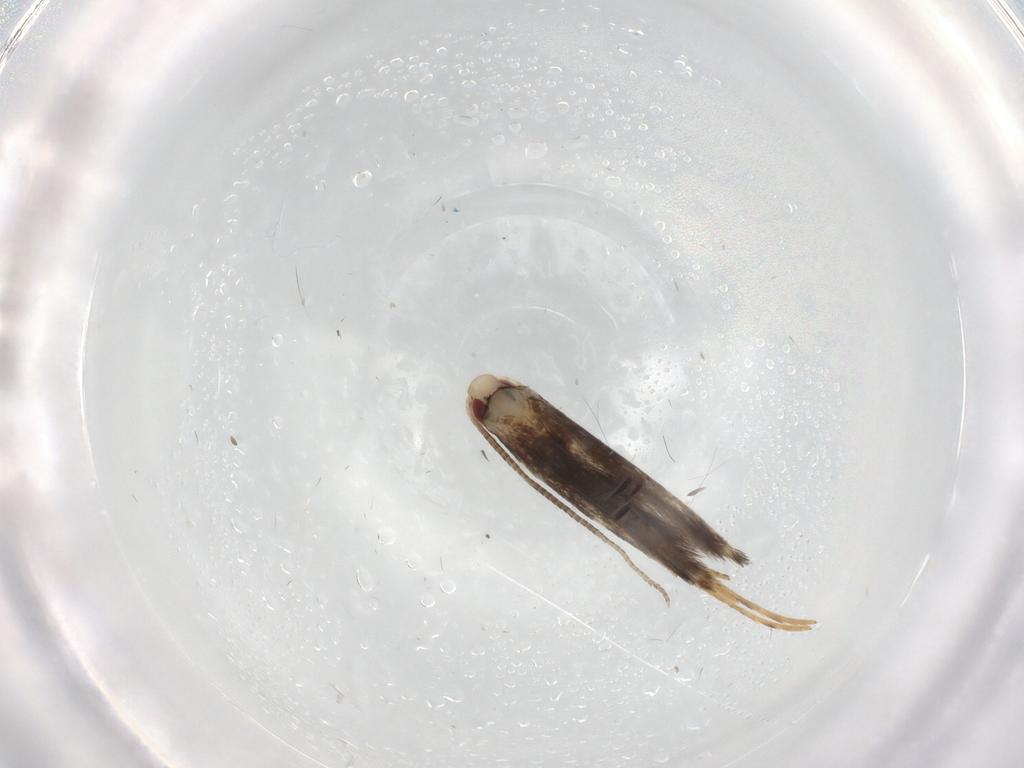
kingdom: Animalia
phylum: Arthropoda
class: Insecta
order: Lepidoptera
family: Gracillariidae
